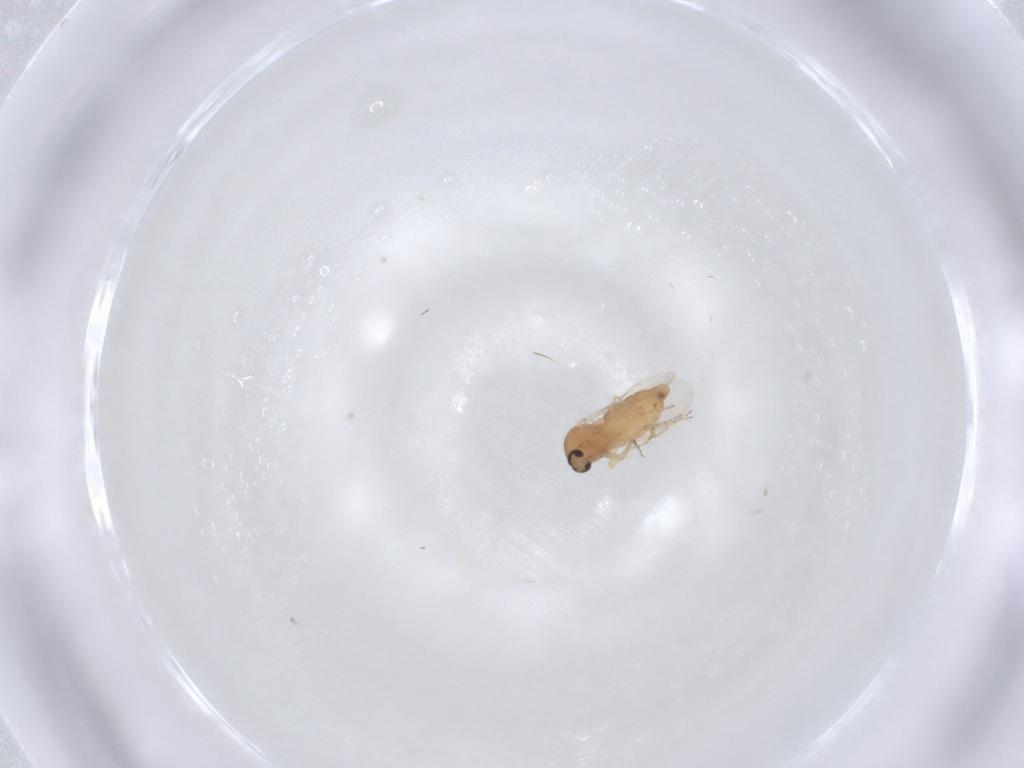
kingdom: Animalia
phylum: Arthropoda
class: Insecta
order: Diptera
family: Ceratopogonidae
